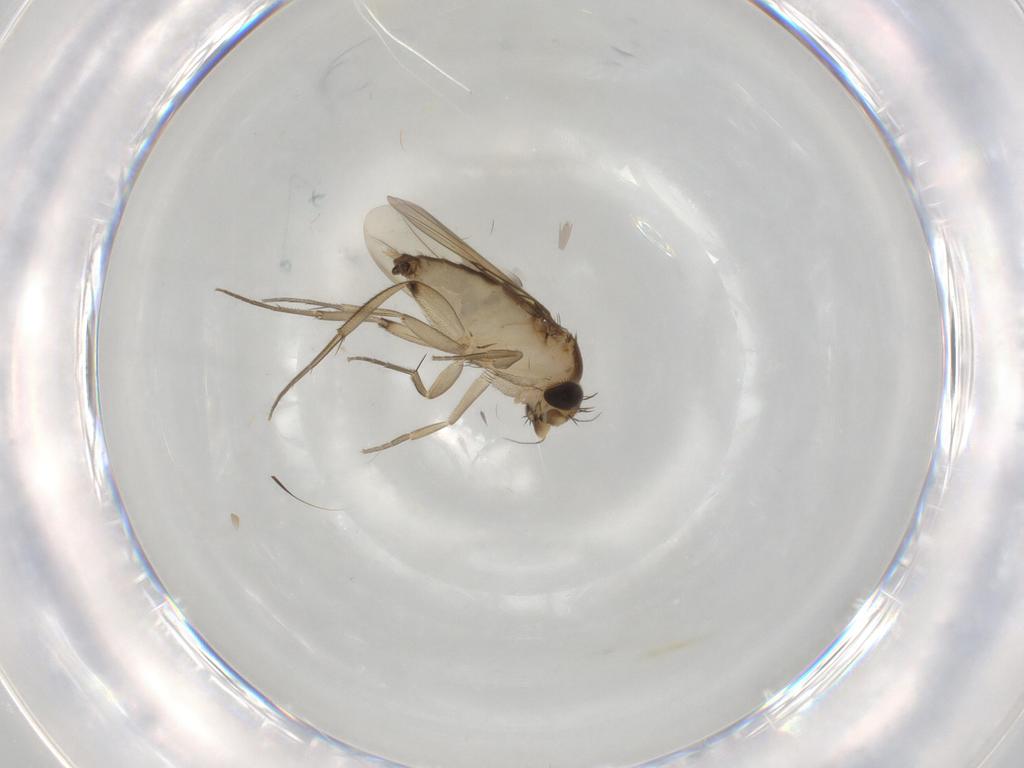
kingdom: Animalia
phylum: Arthropoda
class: Insecta
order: Diptera
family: Phoridae
